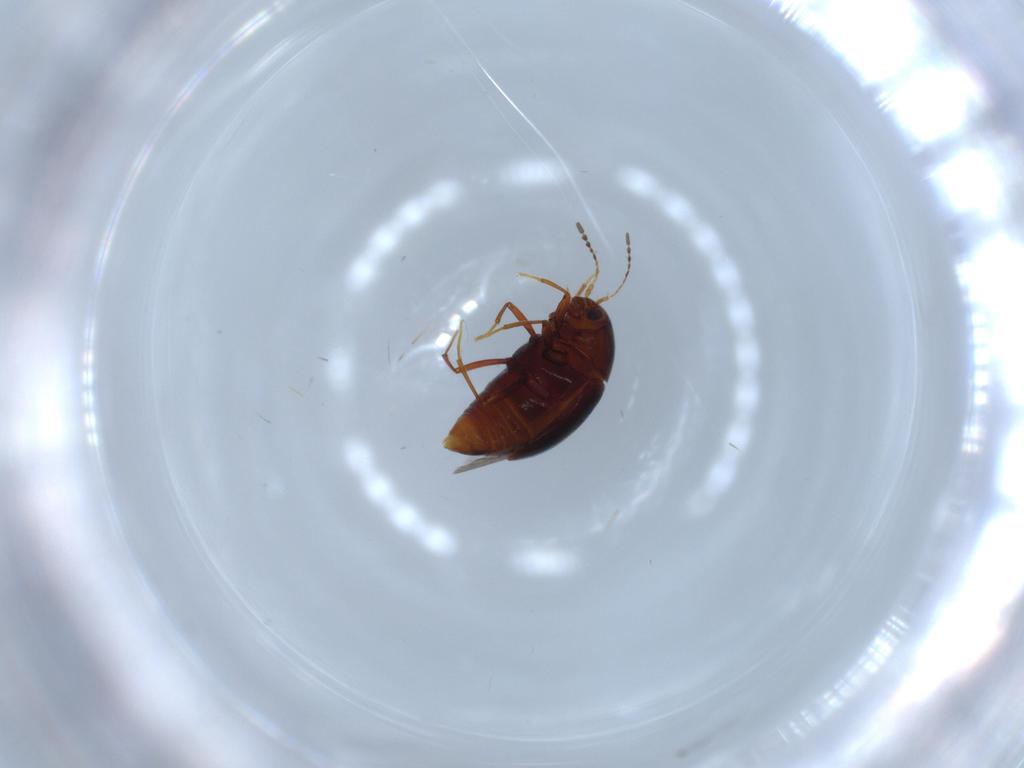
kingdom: Animalia
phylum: Arthropoda
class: Insecta
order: Coleoptera
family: Staphylinidae
